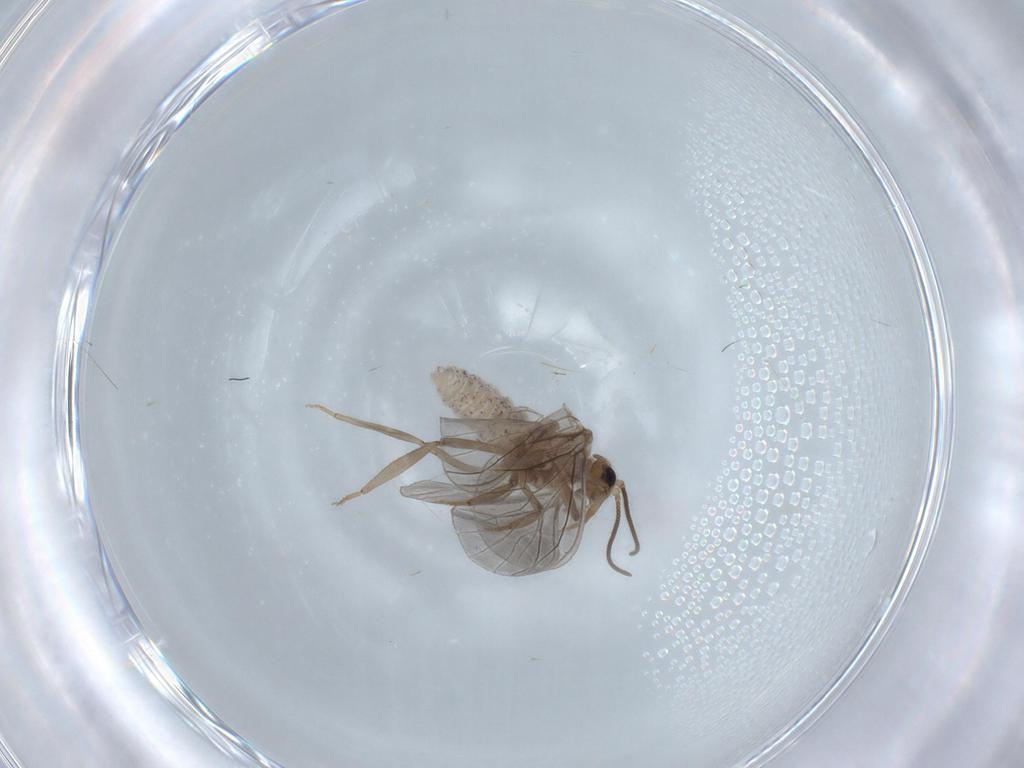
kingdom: Animalia
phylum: Arthropoda
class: Insecta
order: Neuroptera
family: Coniopterygidae
